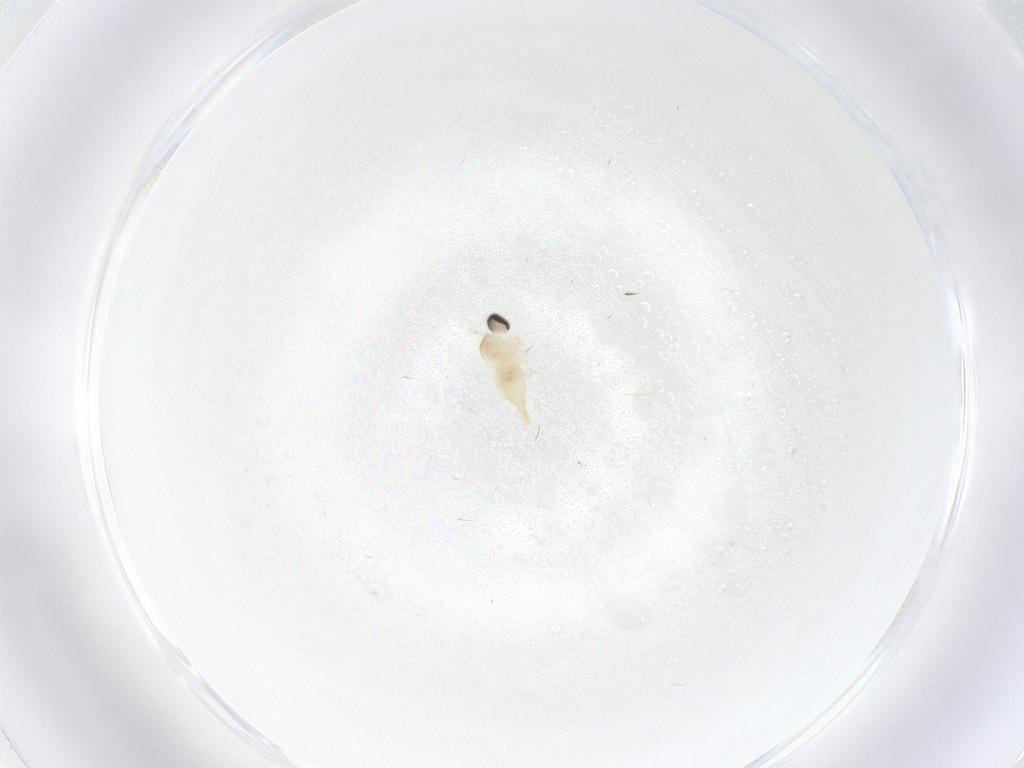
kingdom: Animalia
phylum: Arthropoda
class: Insecta
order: Diptera
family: Cecidomyiidae
